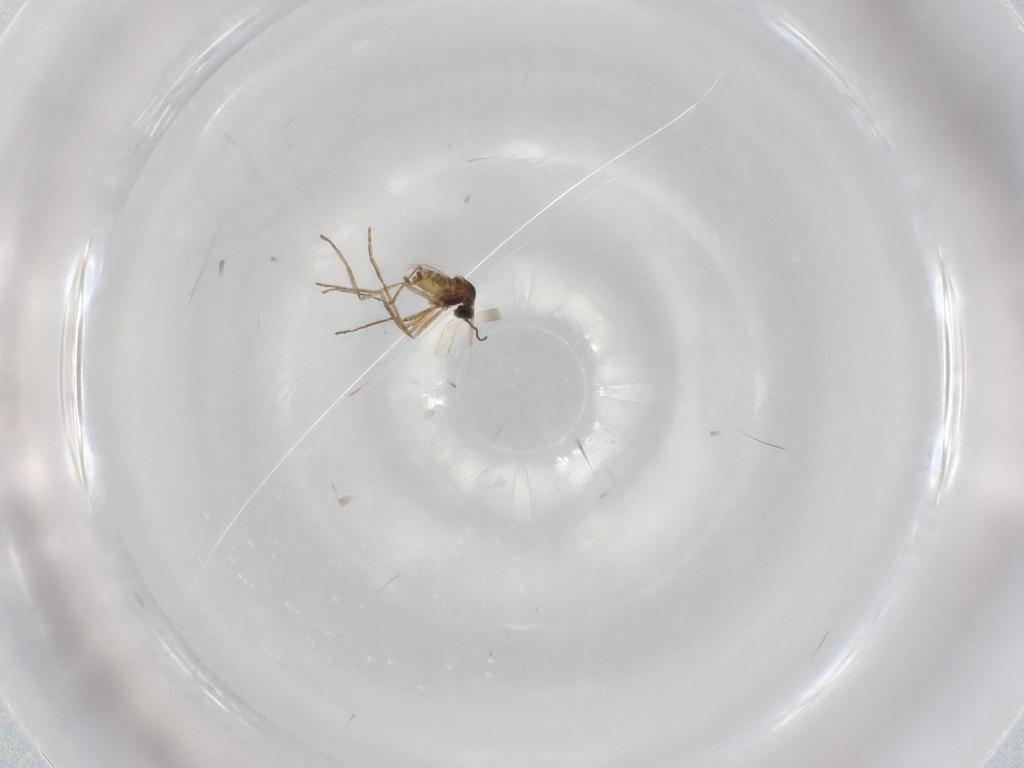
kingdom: Animalia
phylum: Arthropoda
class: Insecta
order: Diptera
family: Cecidomyiidae
